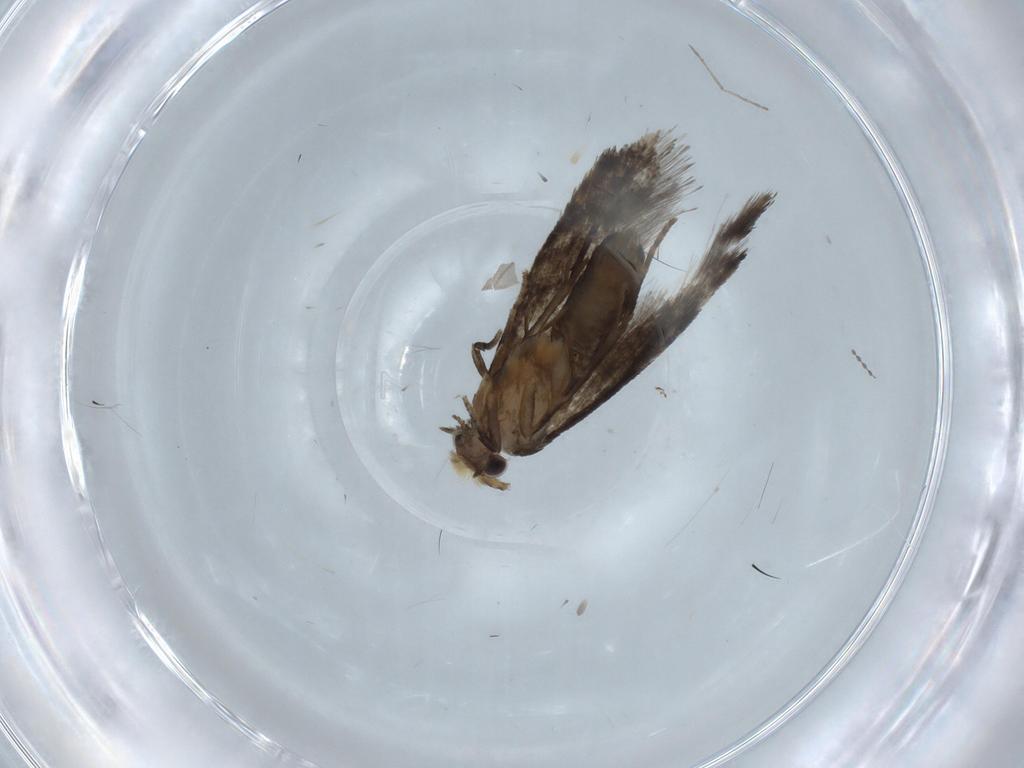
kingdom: Animalia
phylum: Arthropoda
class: Insecta
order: Lepidoptera
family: Tineidae
